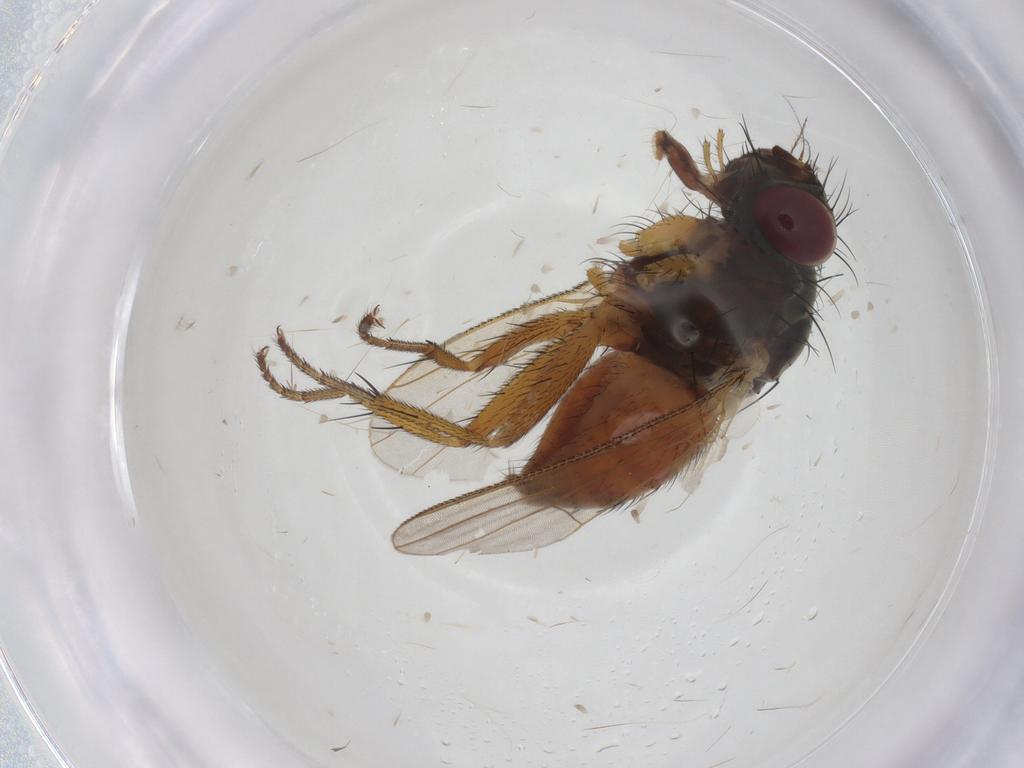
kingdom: Animalia
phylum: Arthropoda
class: Insecta
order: Diptera
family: Muscidae
